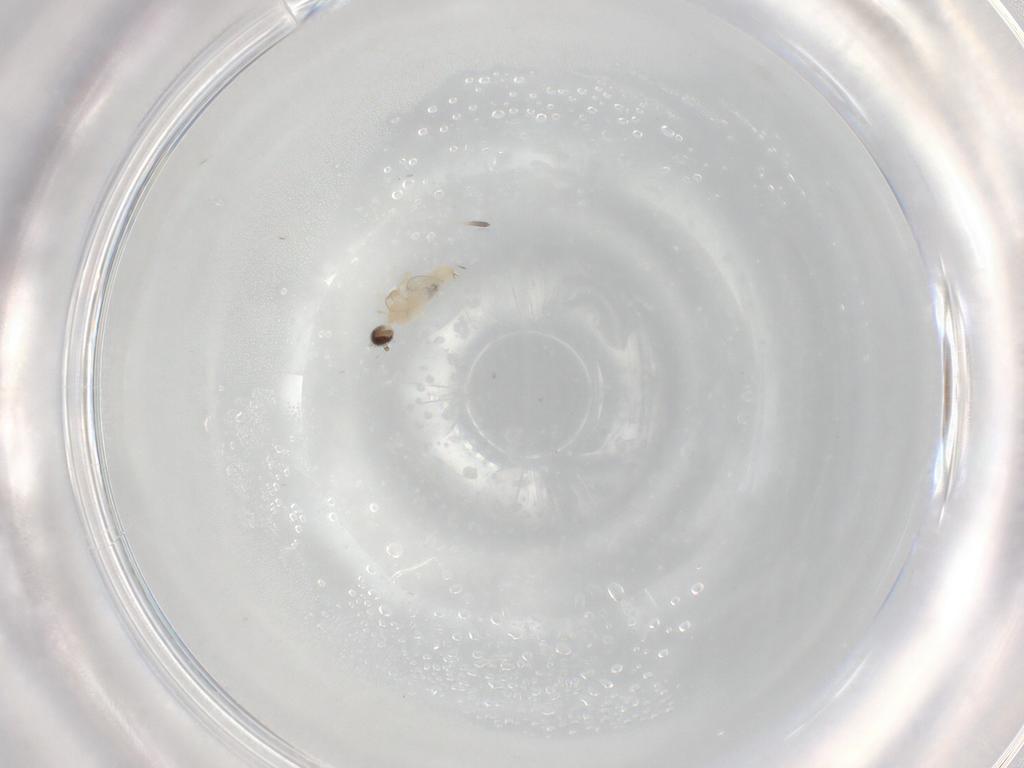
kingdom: Animalia
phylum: Arthropoda
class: Insecta
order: Diptera
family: Cecidomyiidae
